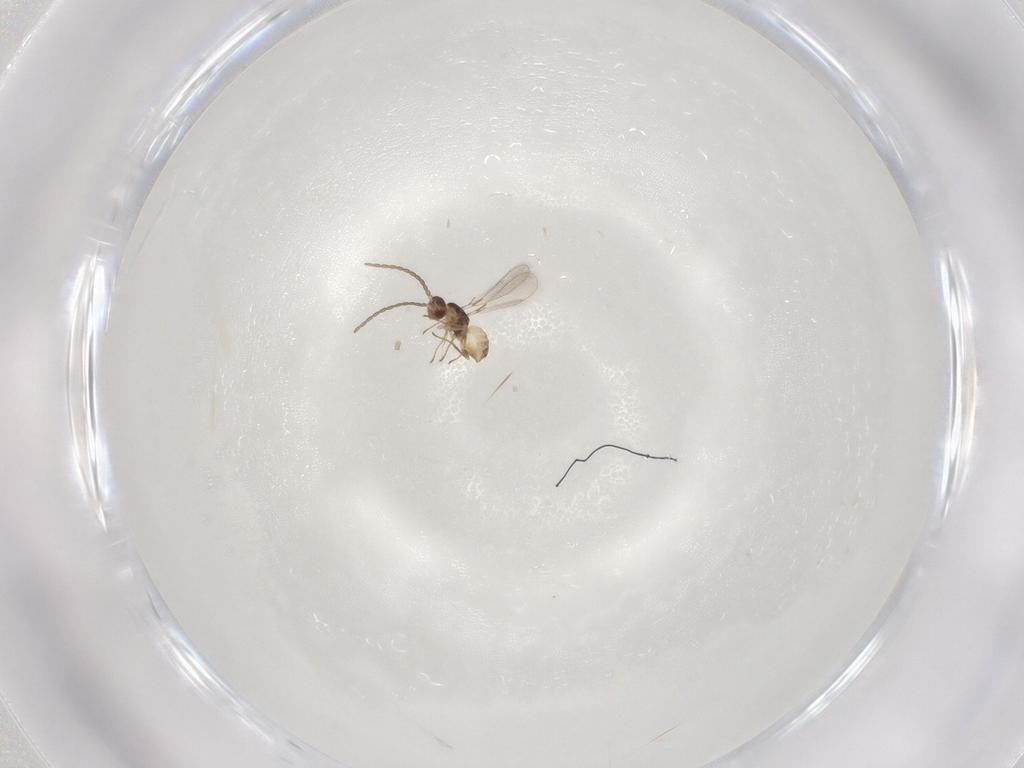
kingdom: Animalia
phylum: Arthropoda
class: Insecta
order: Hymenoptera
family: Mymaridae
